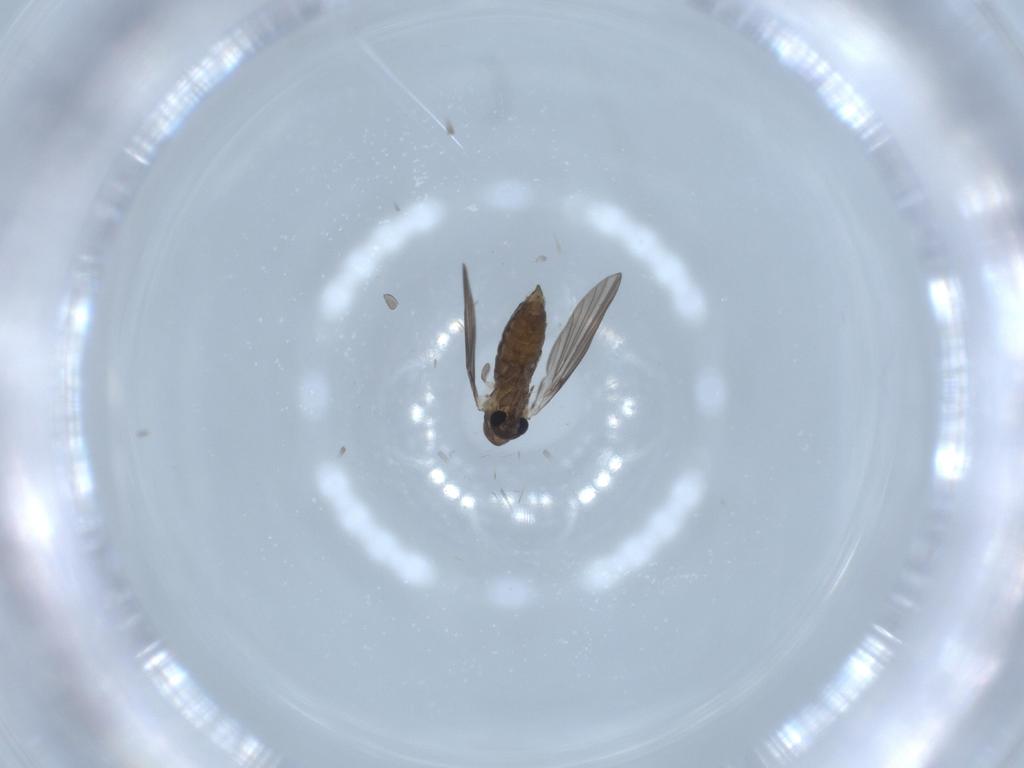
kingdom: Animalia
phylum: Arthropoda
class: Insecta
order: Diptera
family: Psychodidae
